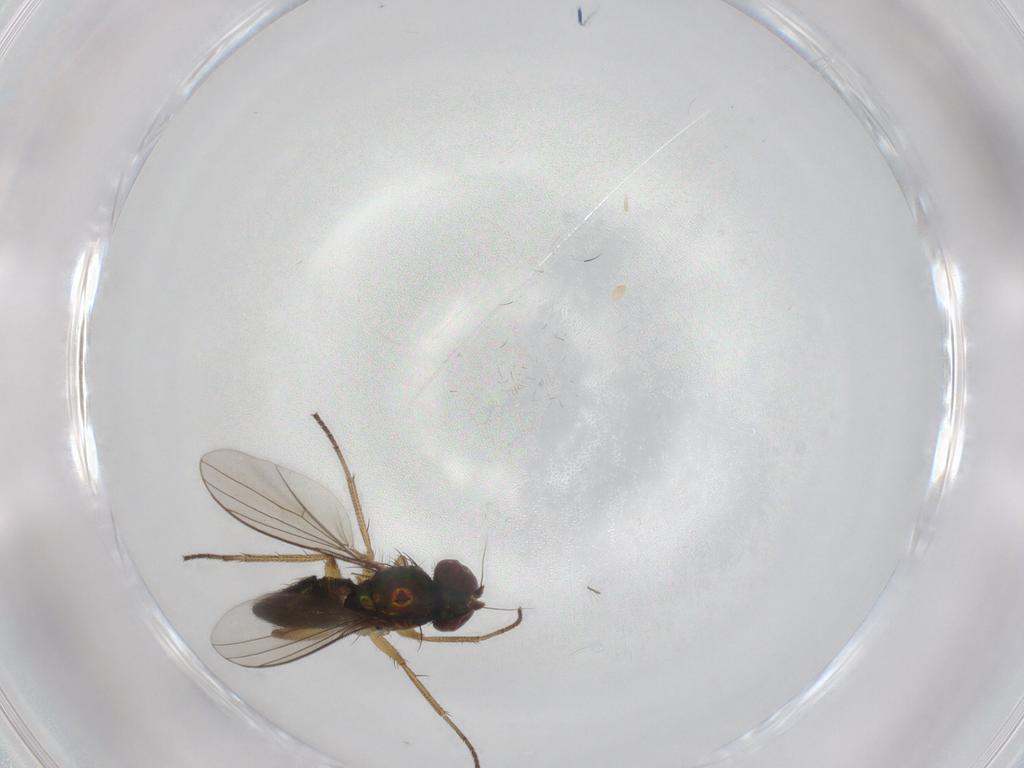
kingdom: Animalia
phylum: Arthropoda
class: Insecta
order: Diptera
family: Dolichopodidae
